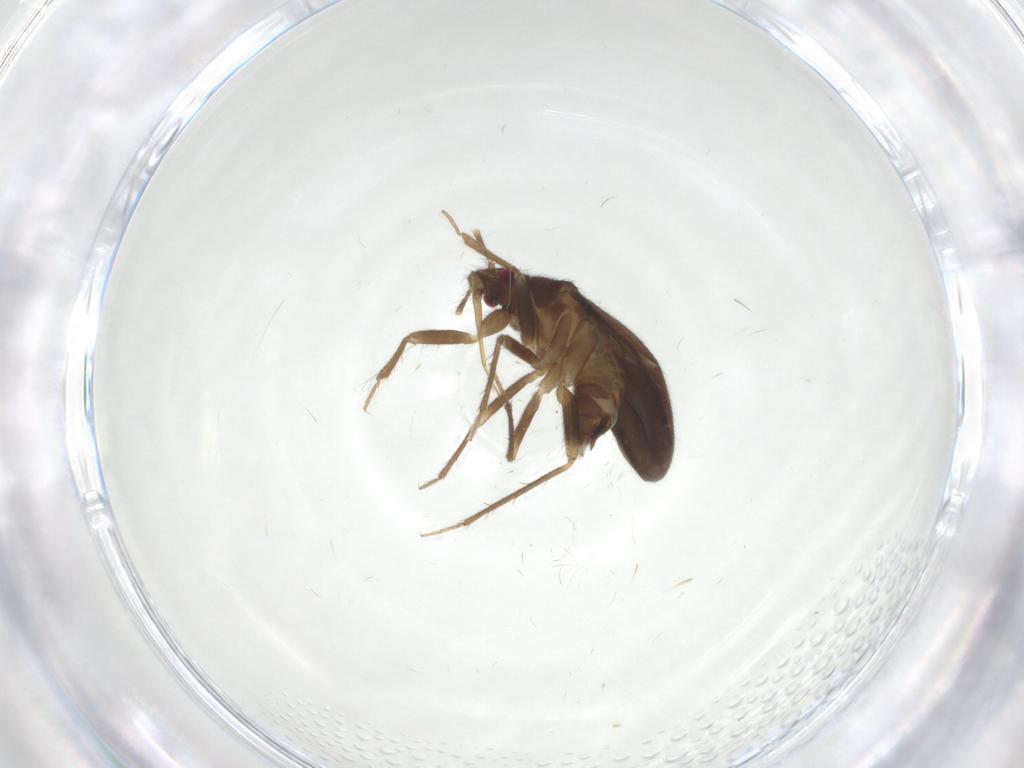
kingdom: Animalia
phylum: Arthropoda
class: Insecta
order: Hemiptera
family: Ceratocombidae
